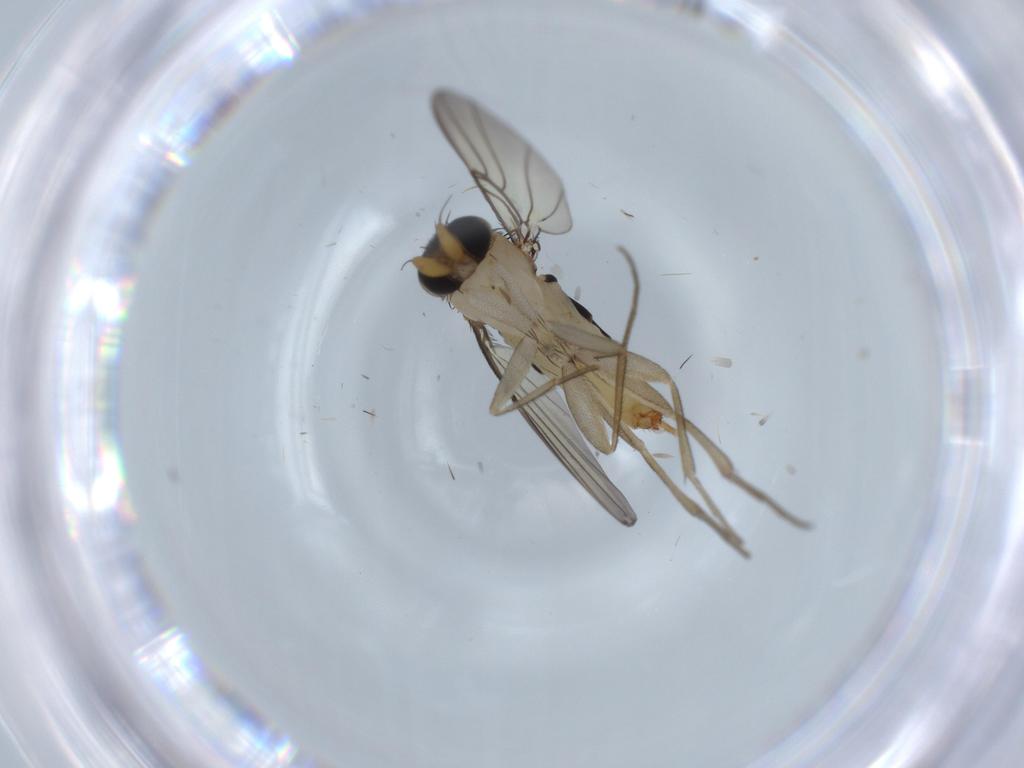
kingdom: Animalia
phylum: Arthropoda
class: Insecta
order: Diptera
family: Phoridae
